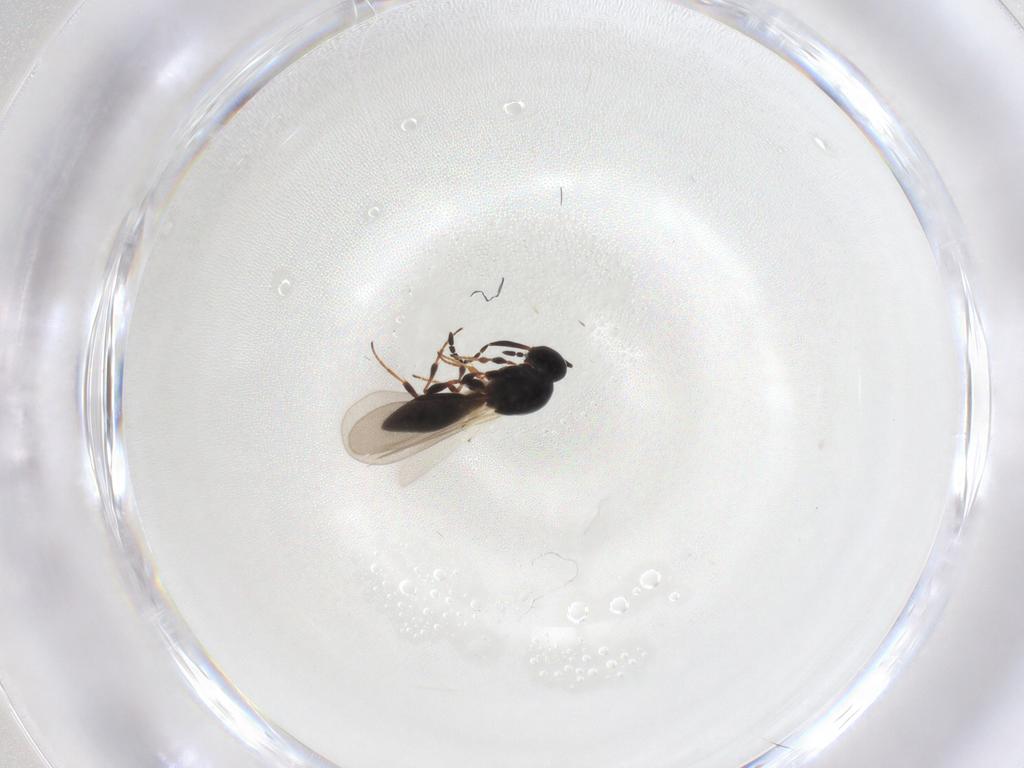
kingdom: Animalia
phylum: Arthropoda
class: Insecta
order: Hymenoptera
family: Platygastridae
